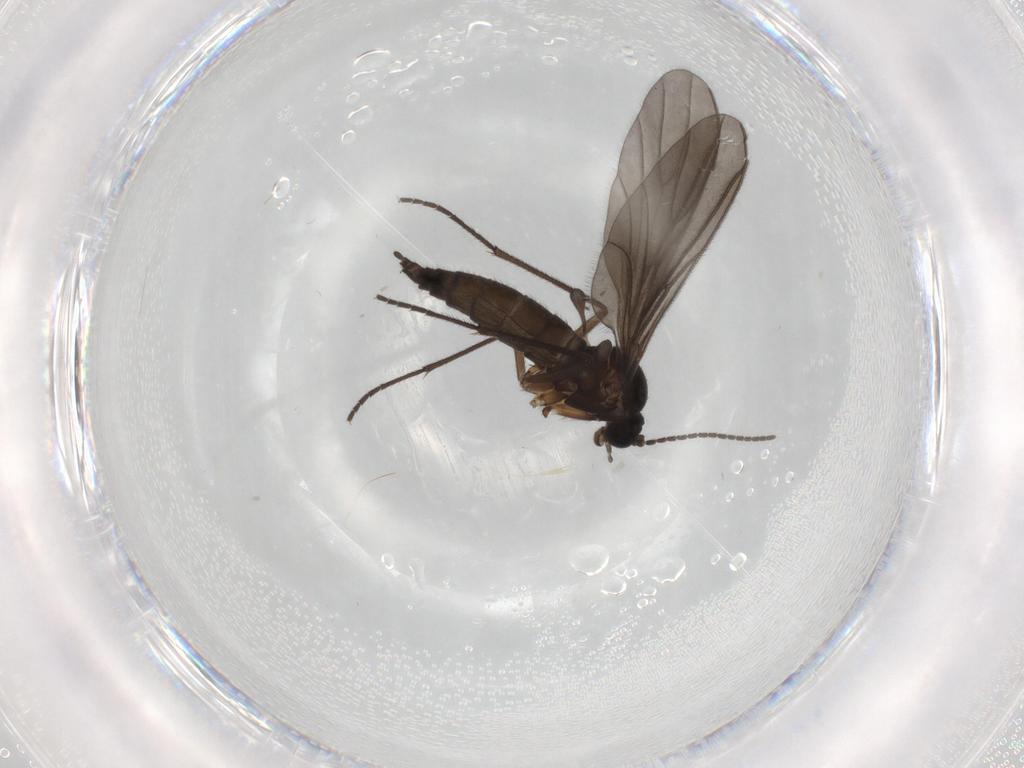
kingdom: Animalia
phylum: Arthropoda
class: Insecta
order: Diptera
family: Sciaridae
